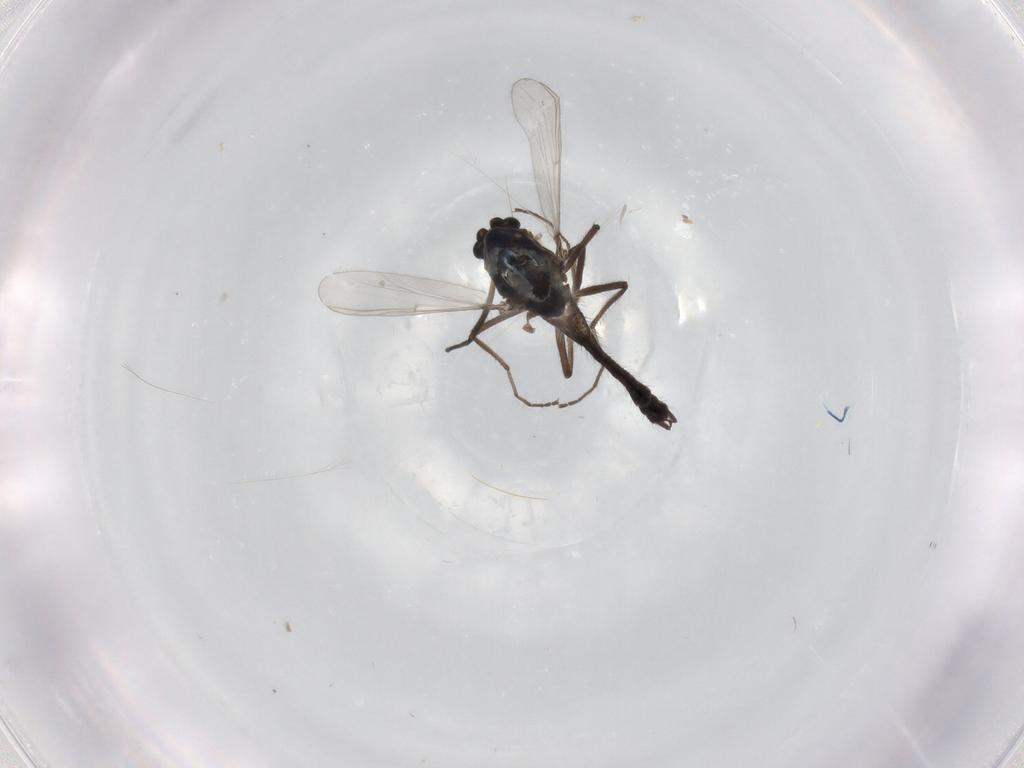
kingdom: Animalia
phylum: Arthropoda
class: Insecta
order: Diptera
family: Chironomidae
